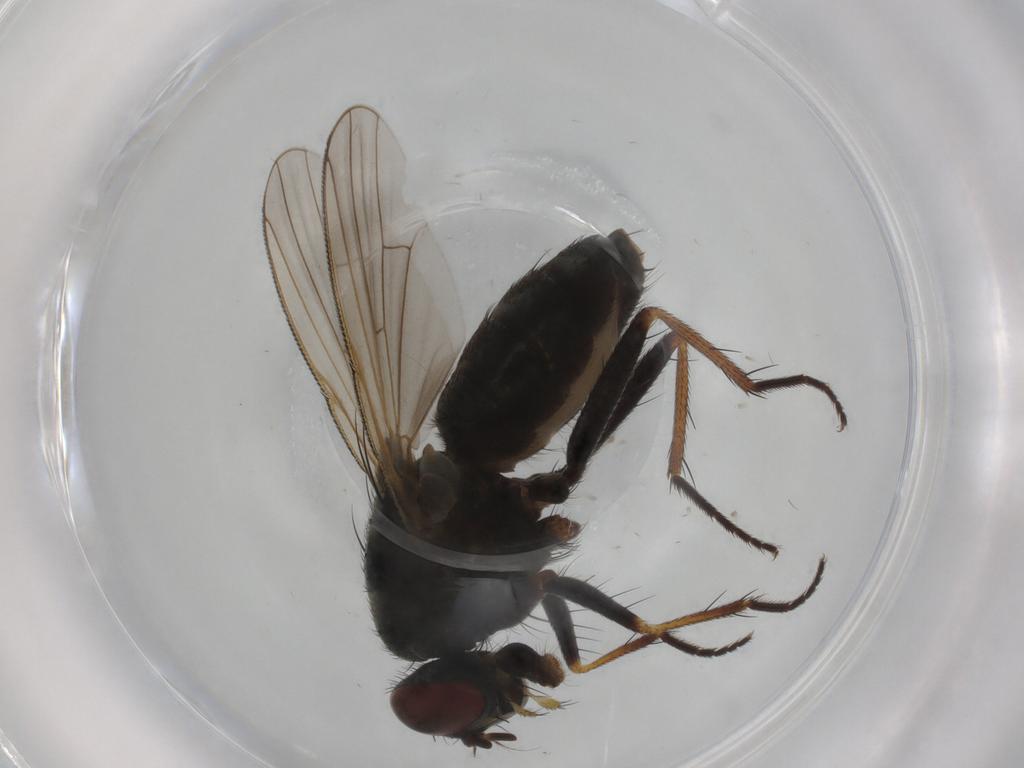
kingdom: Animalia
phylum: Arthropoda
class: Insecta
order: Diptera
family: Muscidae
